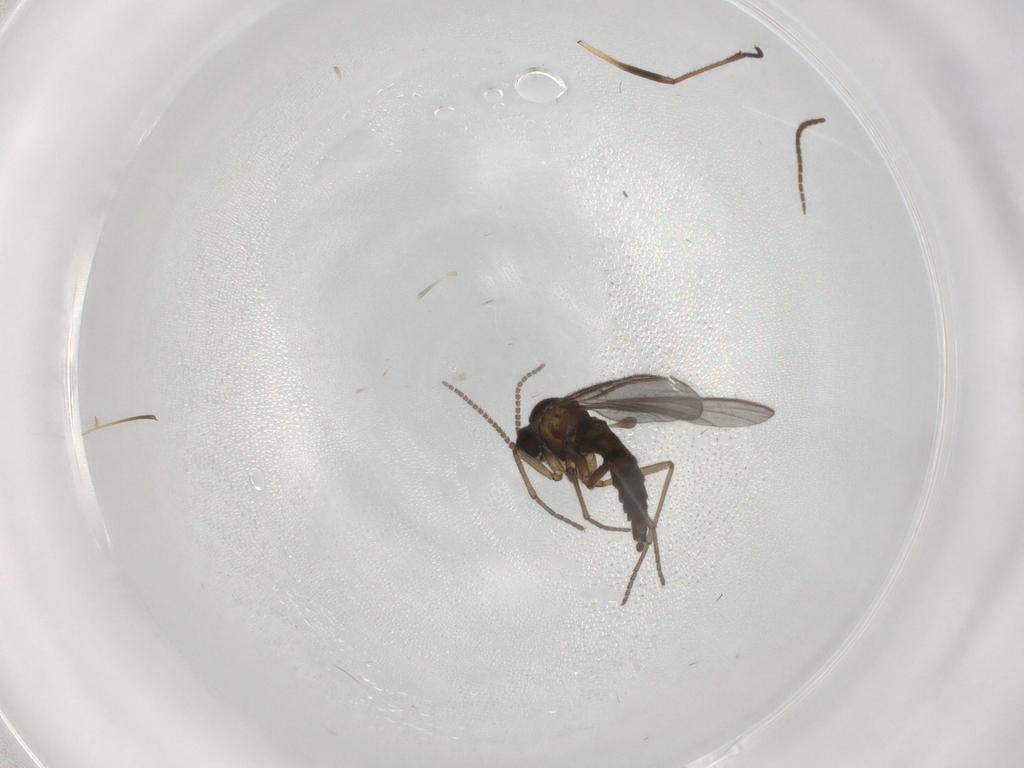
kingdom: Animalia
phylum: Arthropoda
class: Insecta
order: Diptera
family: Sciaridae
